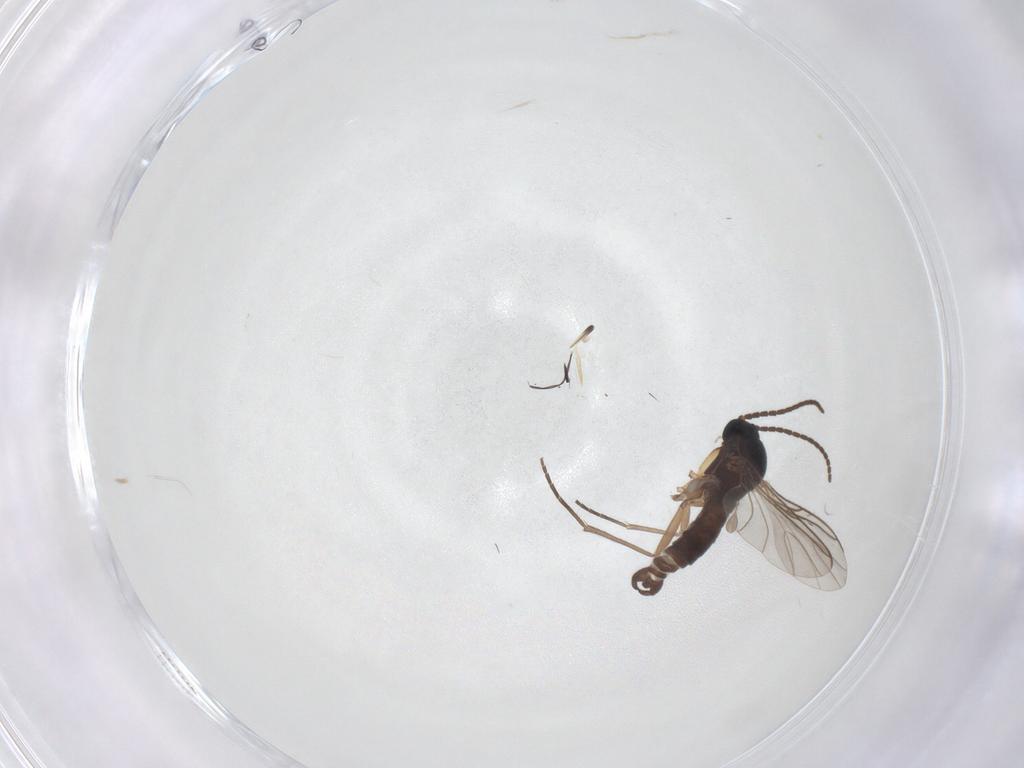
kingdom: Animalia
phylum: Arthropoda
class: Insecta
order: Diptera
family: Sciaridae
